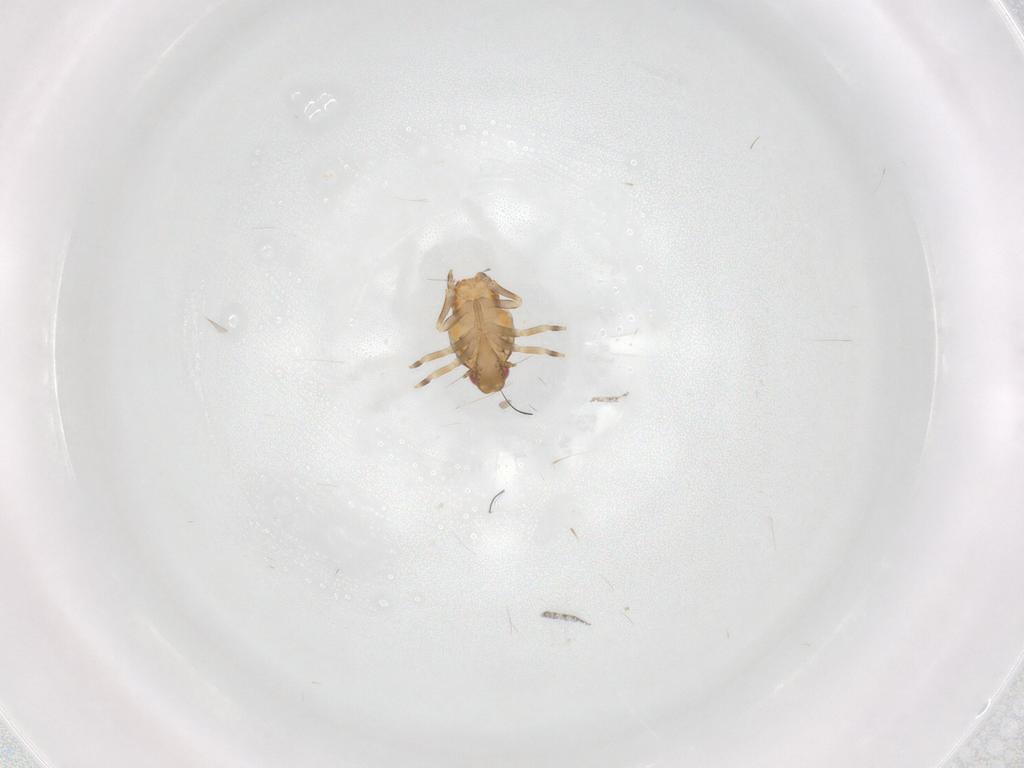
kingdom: Animalia
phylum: Arthropoda
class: Insecta
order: Hemiptera
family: Flatidae
